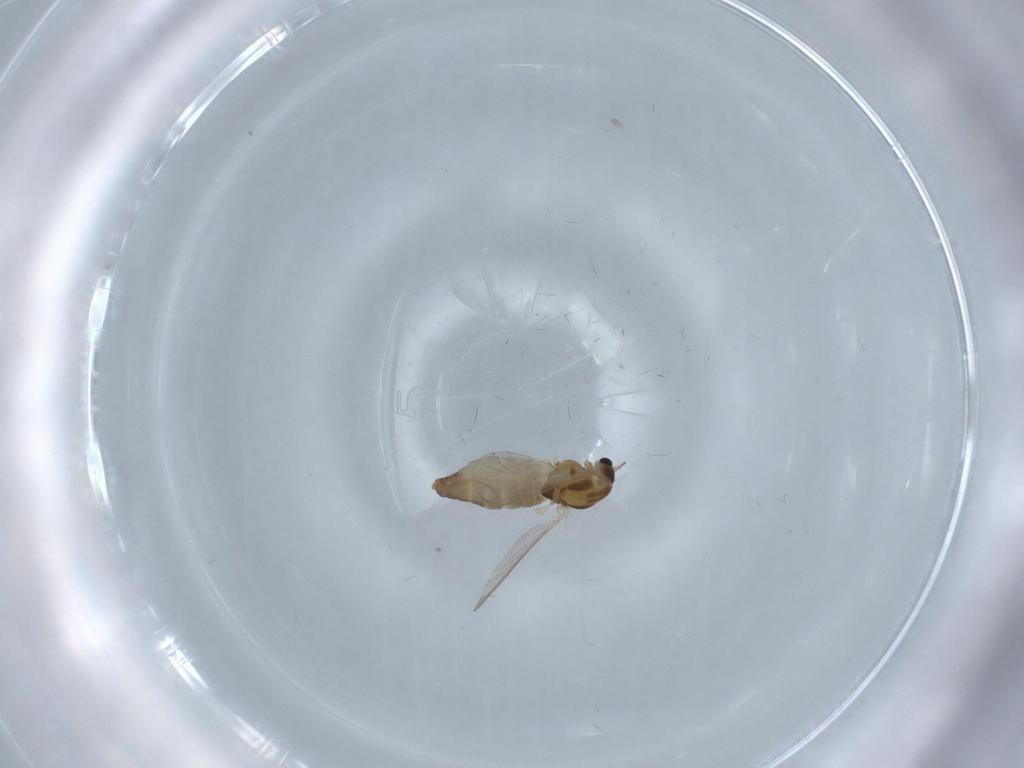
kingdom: Animalia
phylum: Arthropoda
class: Insecta
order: Diptera
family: Chironomidae
